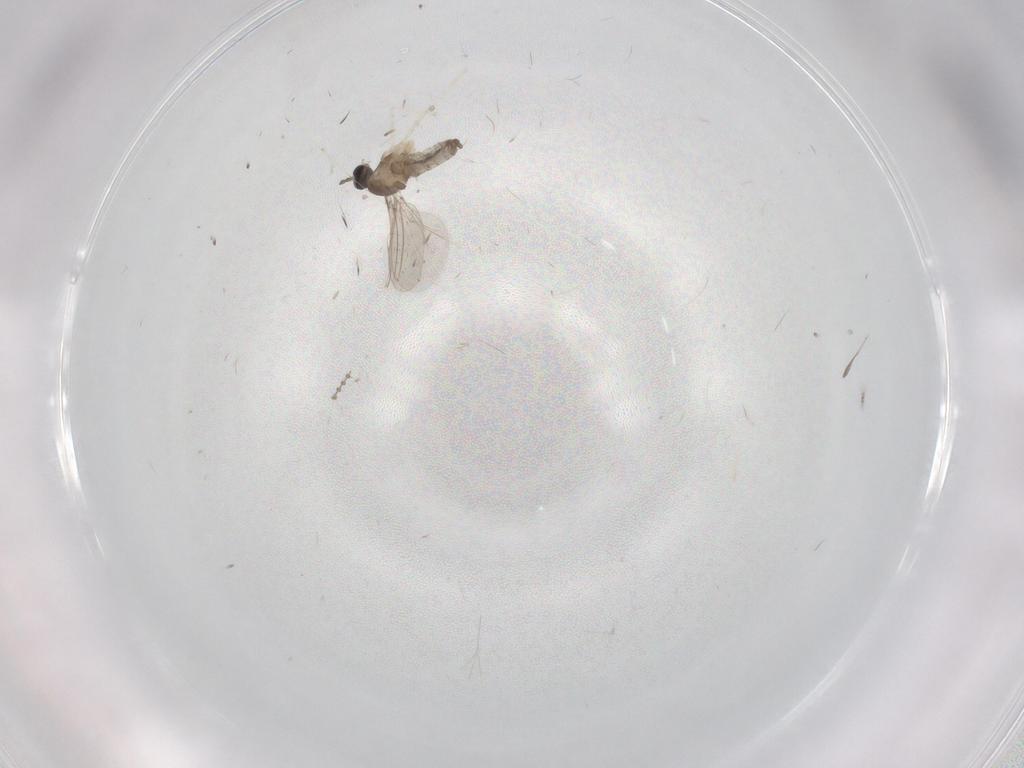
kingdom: Animalia
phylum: Arthropoda
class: Insecta
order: Diptera
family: Cecidomyiidae
